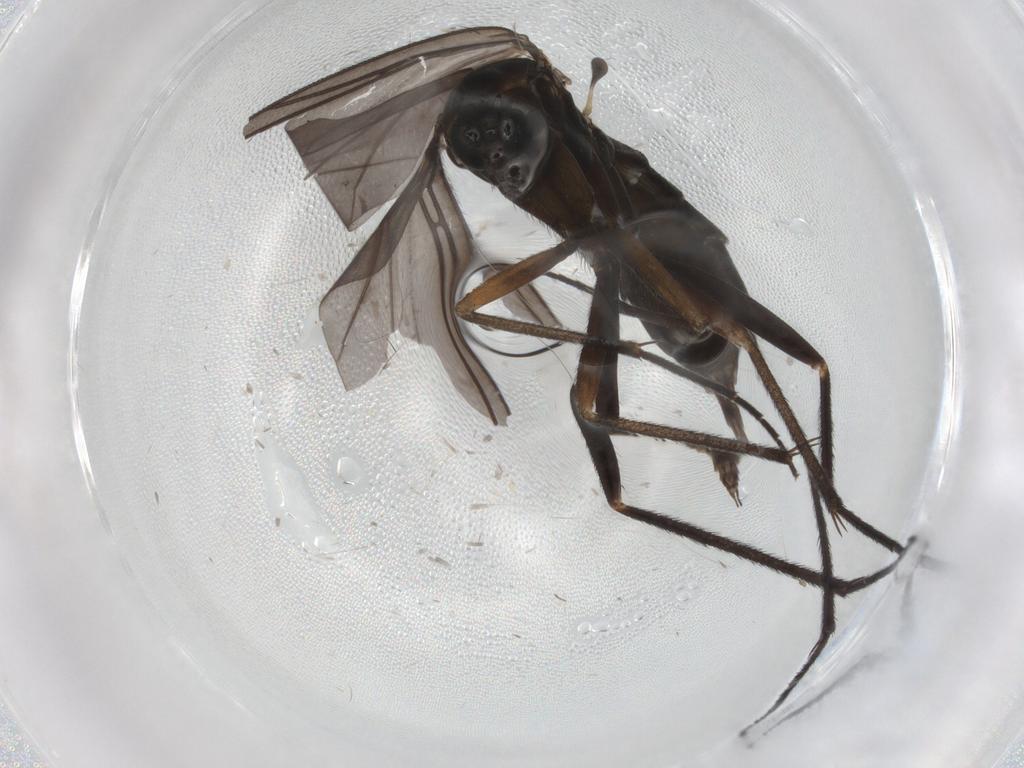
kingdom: Animalia
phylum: Arthropoda
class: Insecta
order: Diptera
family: Sciaridae
